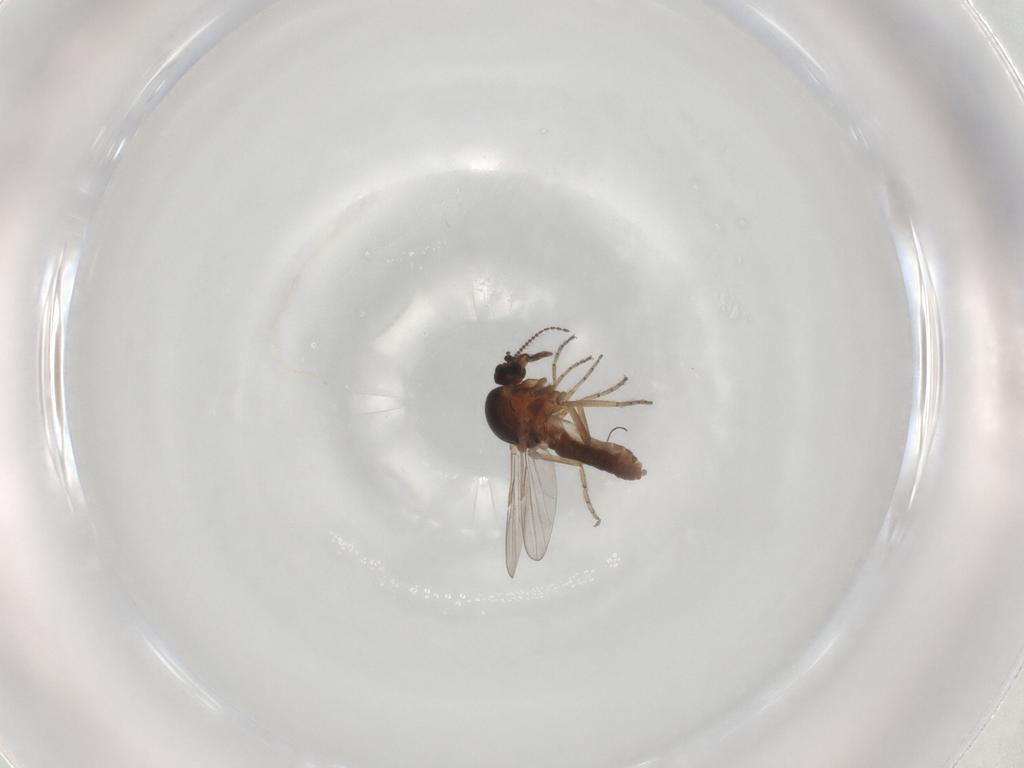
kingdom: Animalia
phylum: Arthropoda
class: Insecta
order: Diptera
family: Ceratopogonidae
